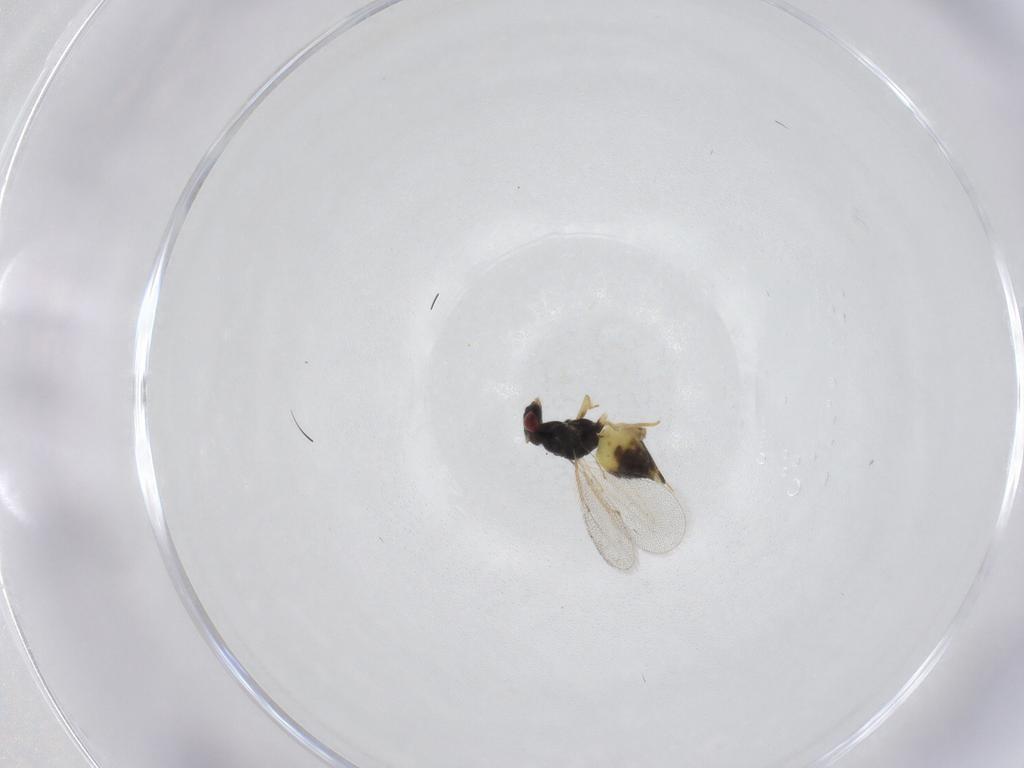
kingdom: Animalia
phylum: Arthropoda
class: Insecta
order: Hymenoptera
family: Eulophidae
